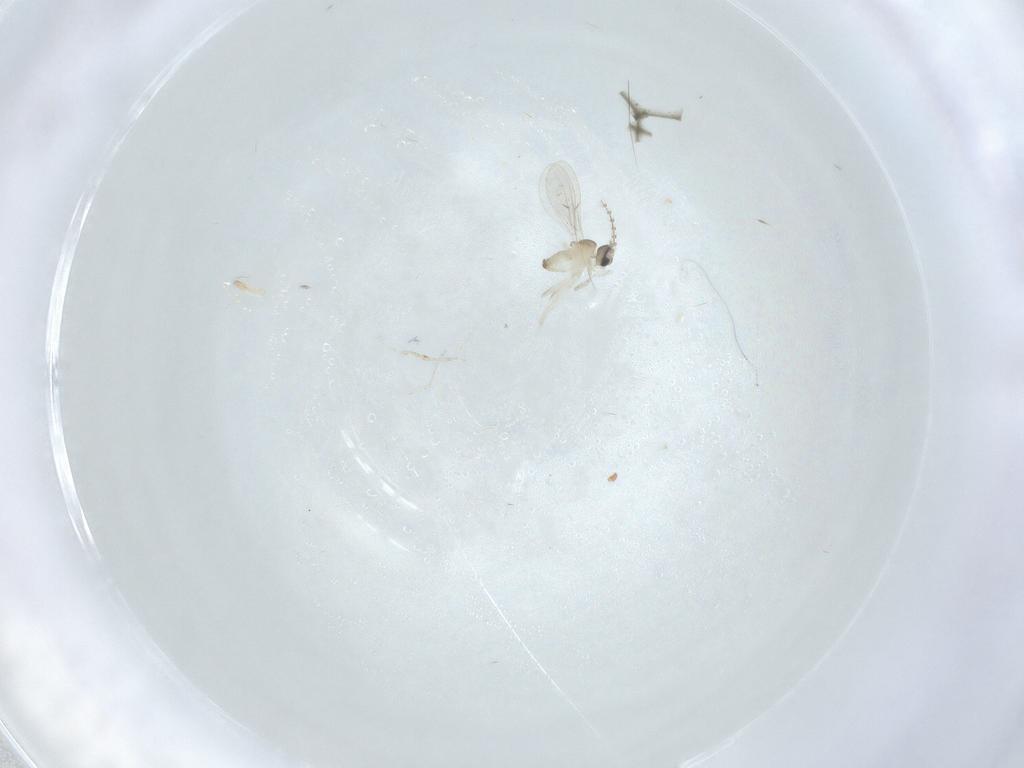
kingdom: Animalia
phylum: Arthropoda
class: Insecta
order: Diptera
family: Cecidomyiidae
